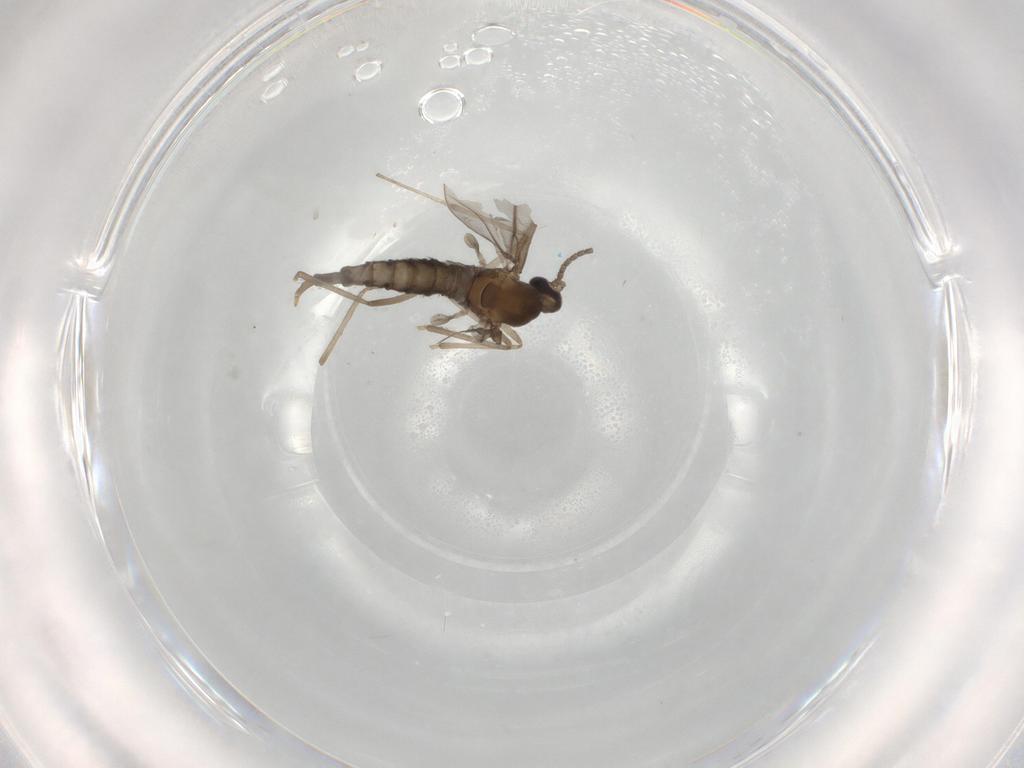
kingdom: Animalia
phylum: Arthropoda
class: Insecta
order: Diptera
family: Cecidomyiidae
